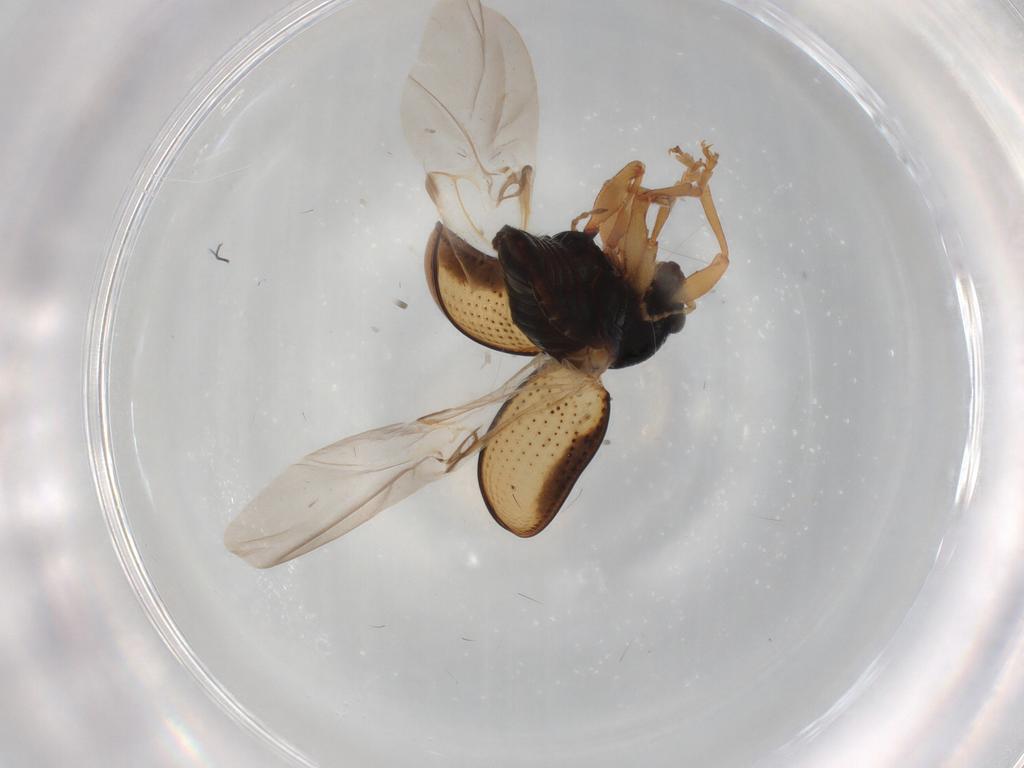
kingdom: Animalia
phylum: Arthropoda
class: Insecta
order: Coleoptera
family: Chrysomelidae
